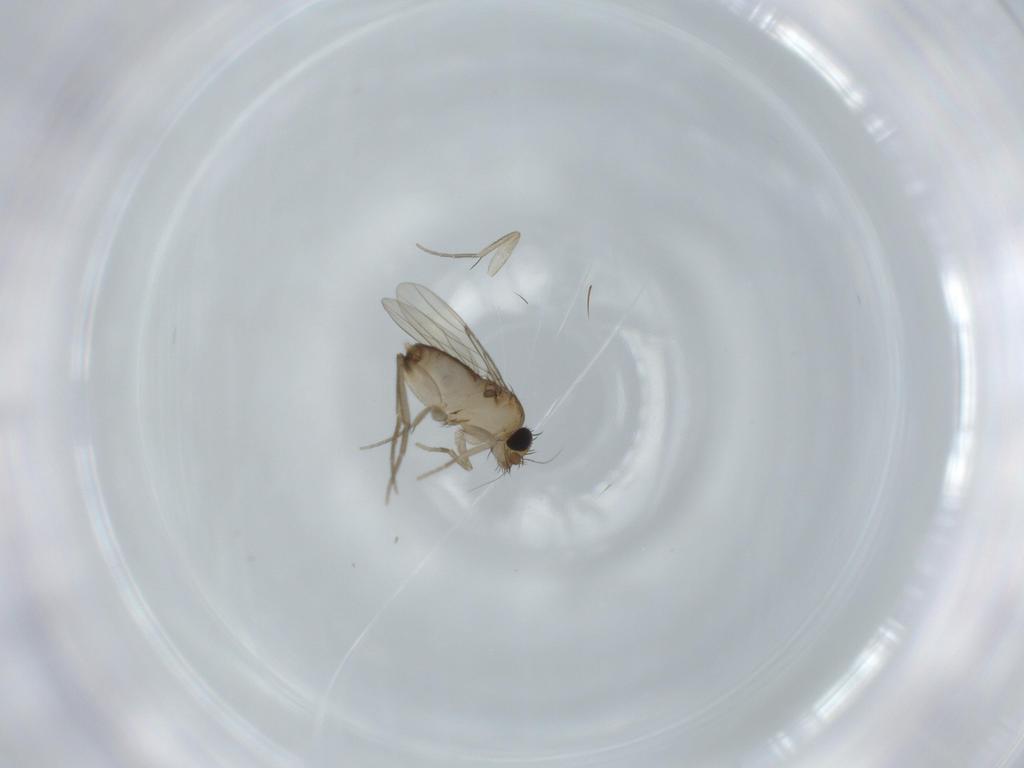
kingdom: Animalia
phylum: Arthropoda
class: Insecta
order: Diptera
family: Phoridae
